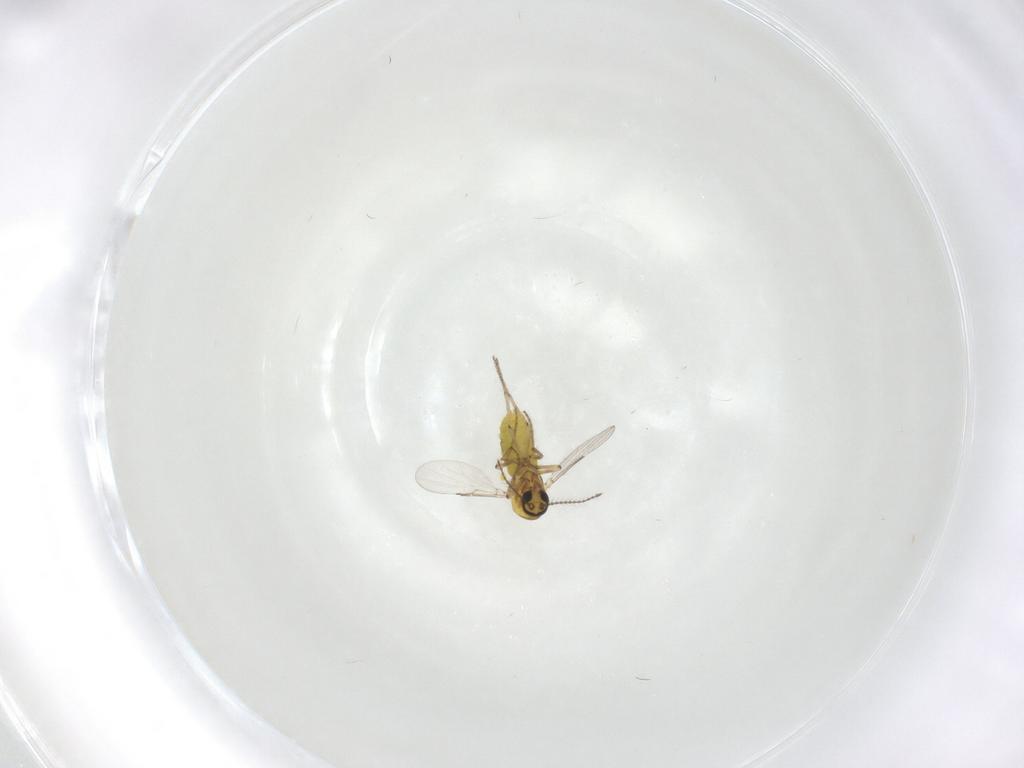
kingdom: Animalia
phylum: Arthropoda
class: Insecta
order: Diptera
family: Ceratopogonidae
